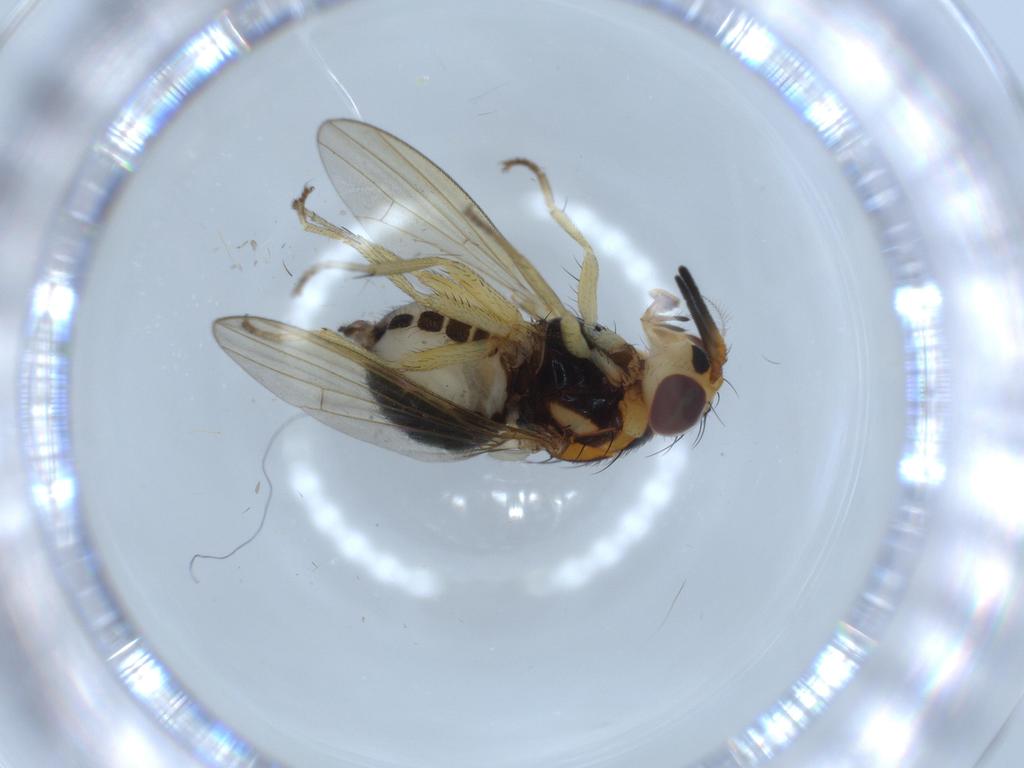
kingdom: Animalia
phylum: Arthropoda
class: Insecta
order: Diptera
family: Lauxaniidae
